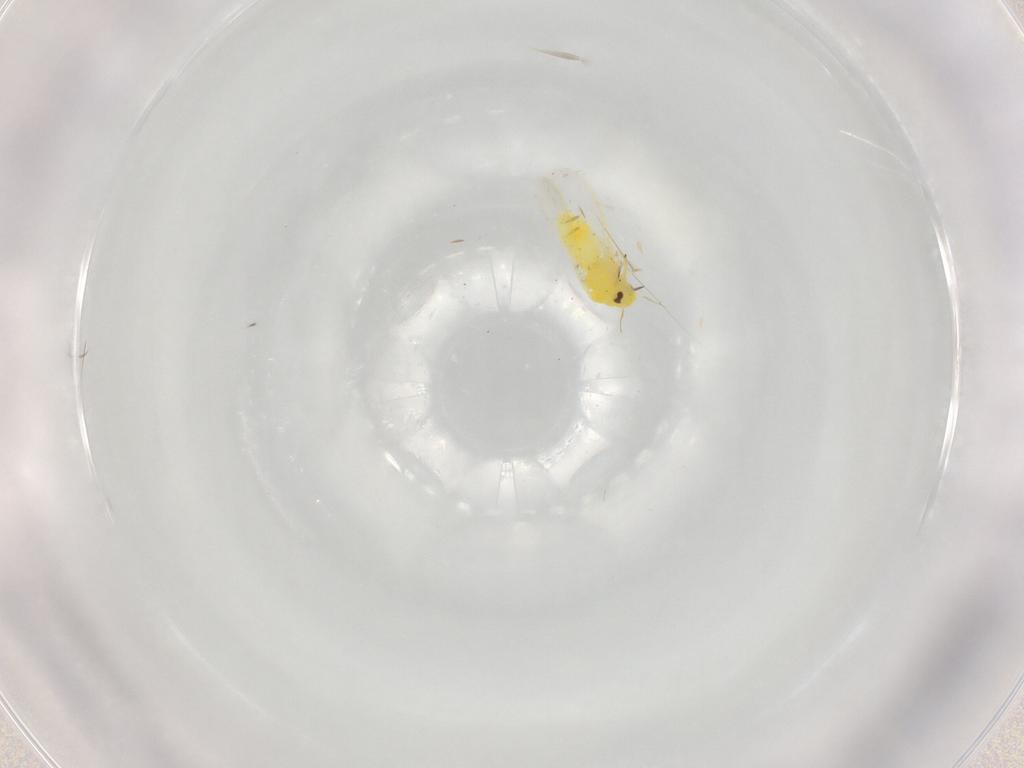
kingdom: Animalia
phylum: Arthropoda
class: Insecta
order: Hemiptera
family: Aleyrodidae
